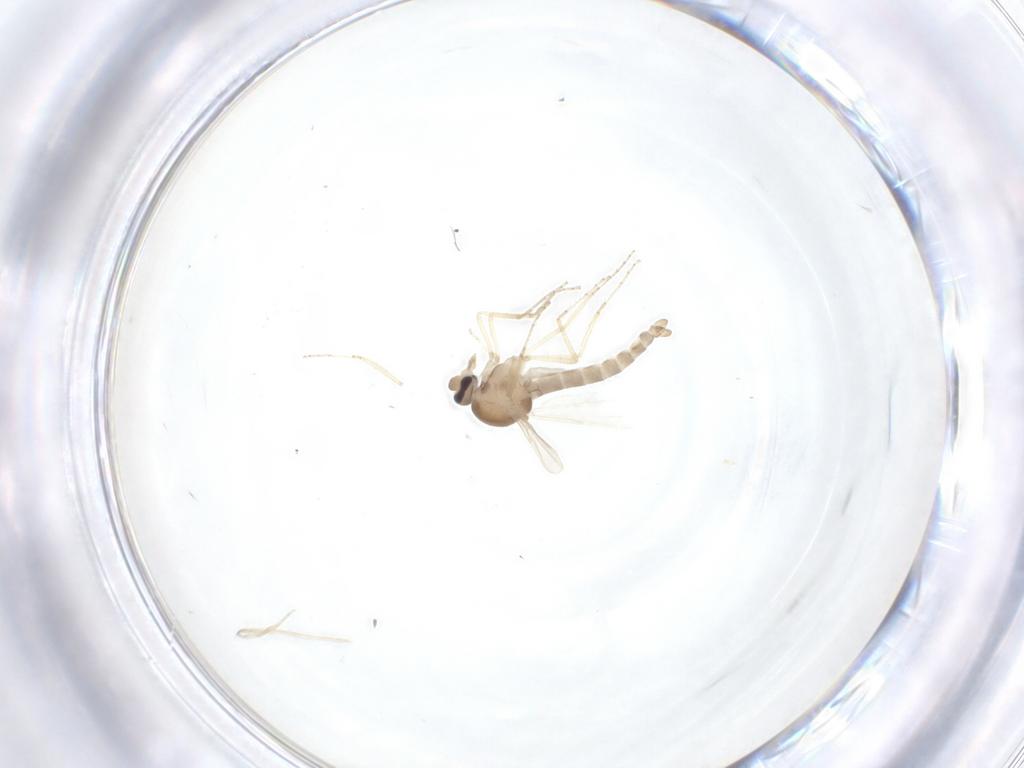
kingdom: Animalia
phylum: Arthropoda
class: Insecta
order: Diptera
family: Ceratopogonidae
